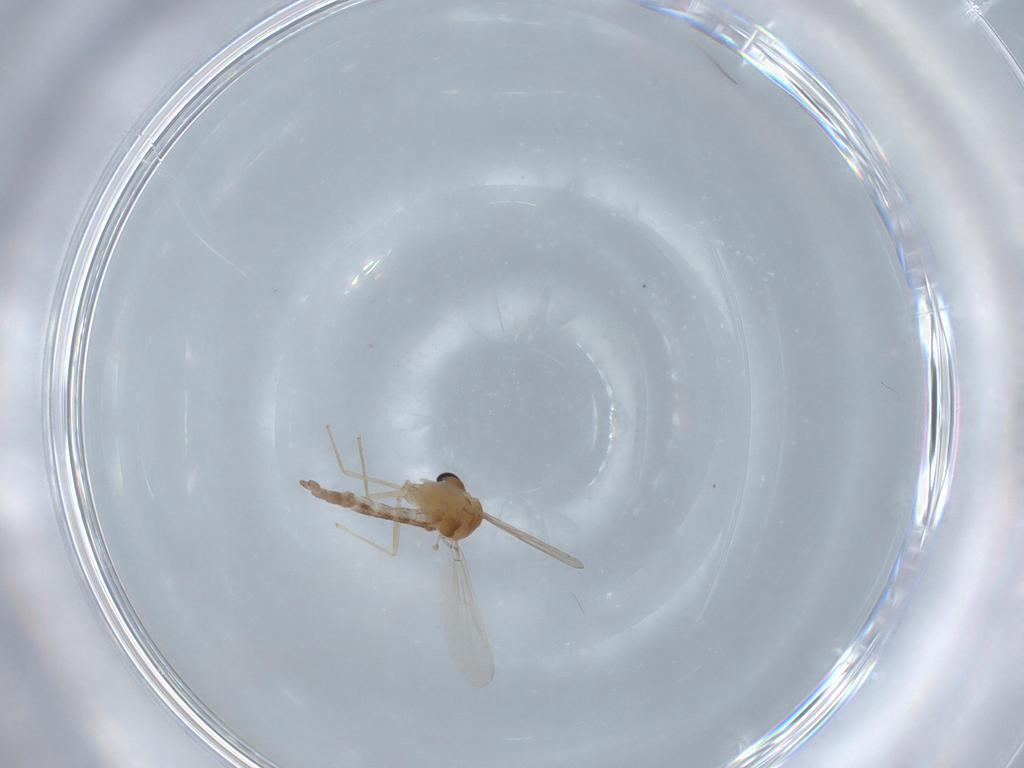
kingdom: Animalia
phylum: Arthropoda
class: Insecta
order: Diptera
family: Chironomidae
